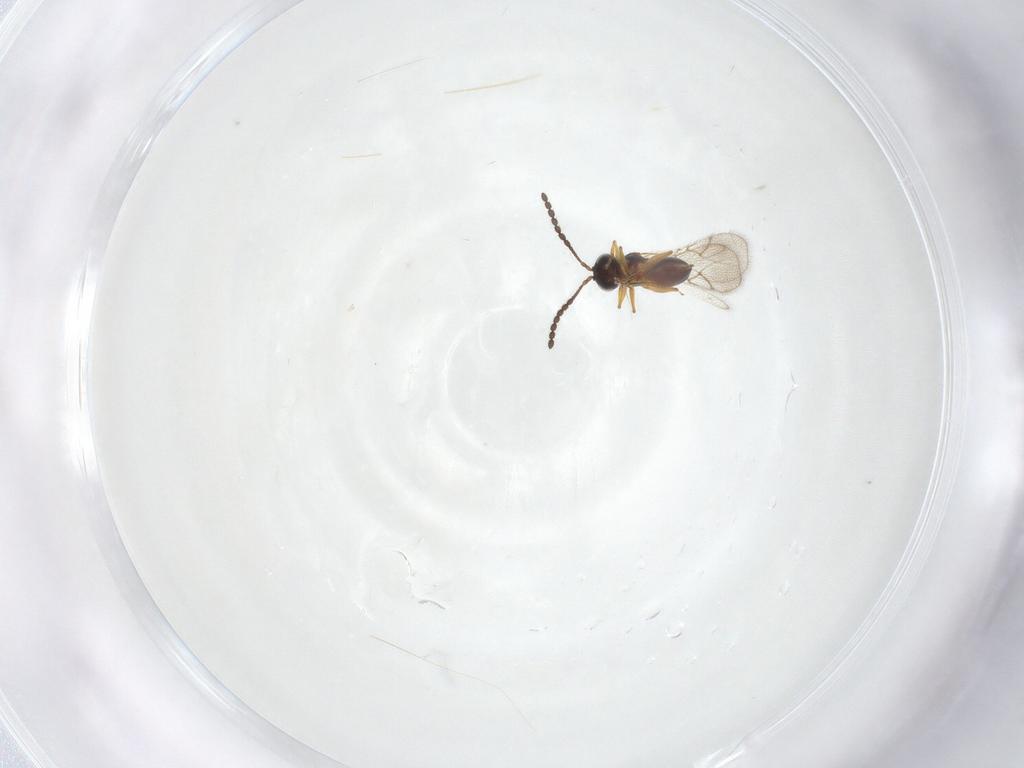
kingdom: Animalia
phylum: Arthropoda
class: Insecta
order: Hymenoptera
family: Figitidae
